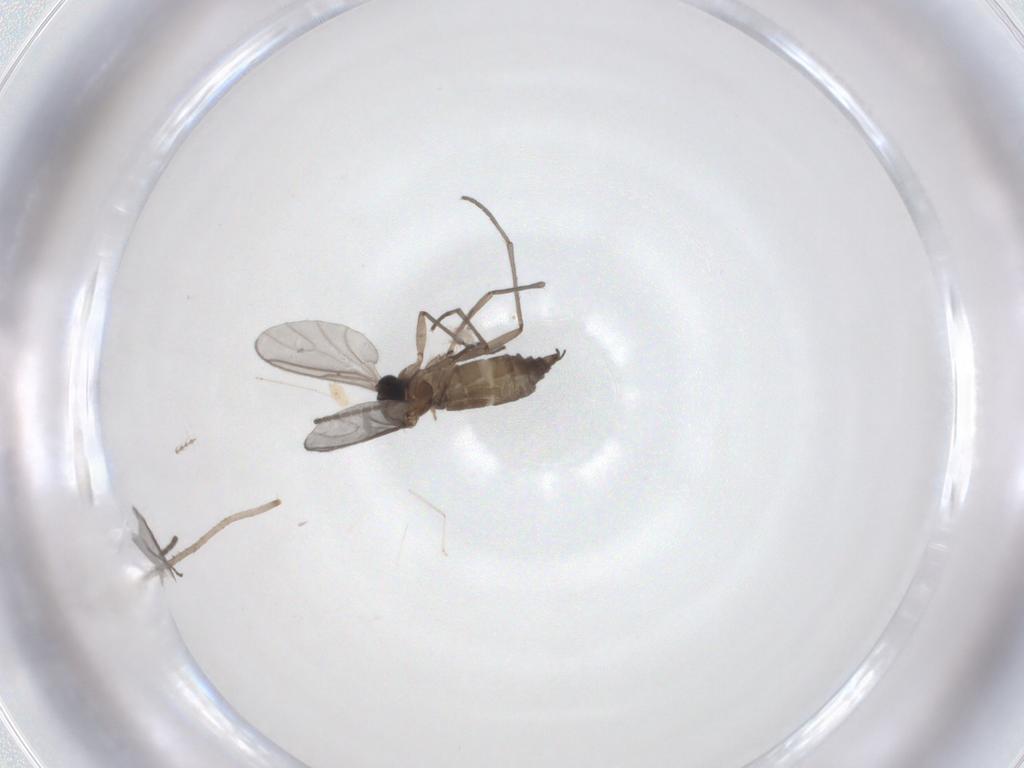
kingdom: Animalia
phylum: Arthropoda
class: Insecta
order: Diptera
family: Sciaridae
